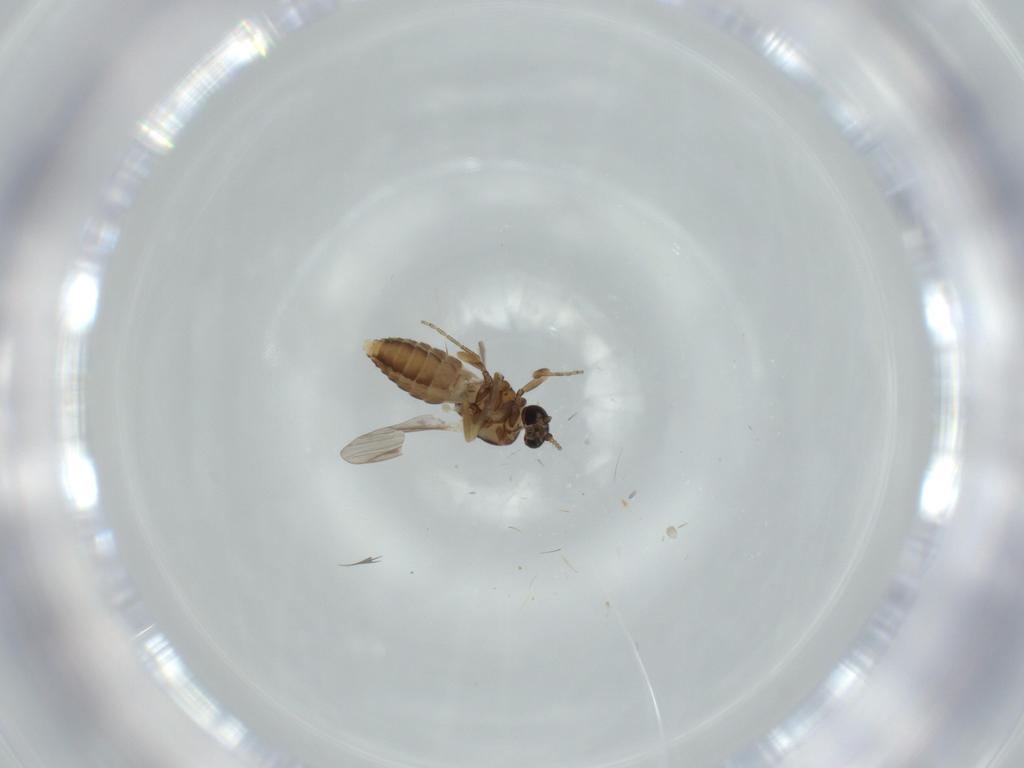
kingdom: Animalia
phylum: Arthropoda
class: Insecta
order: Diptera
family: Ceratopogonidae
